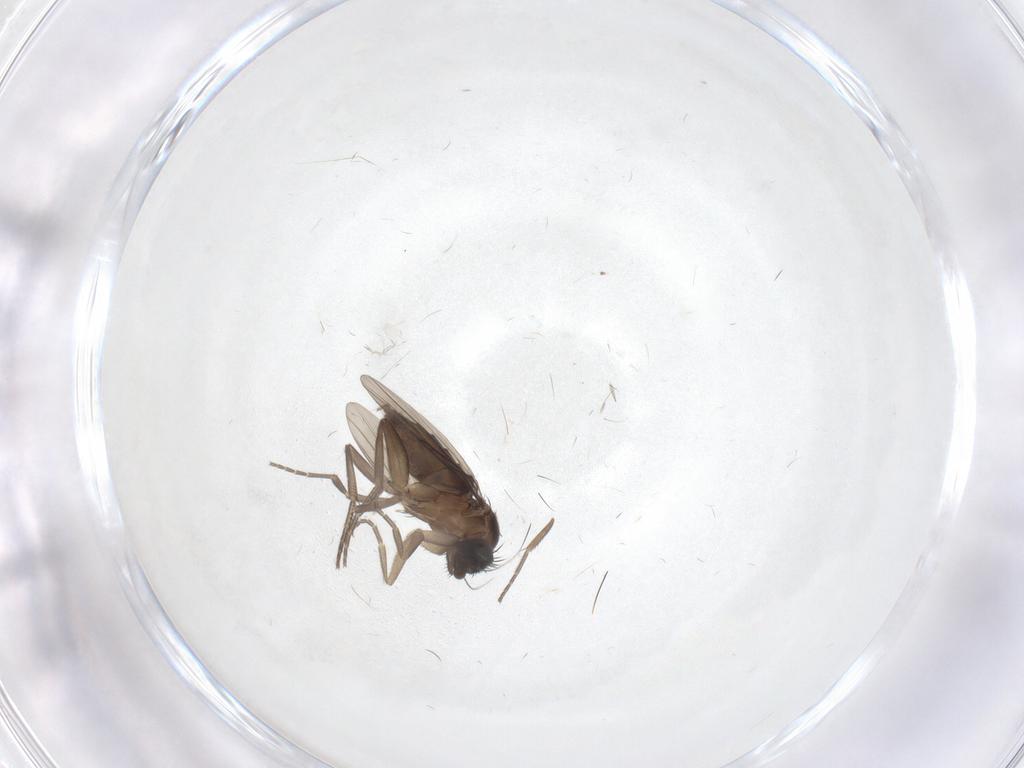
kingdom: Animalia
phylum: Arthropoda
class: Insecta
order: Diptera
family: Phoridae
